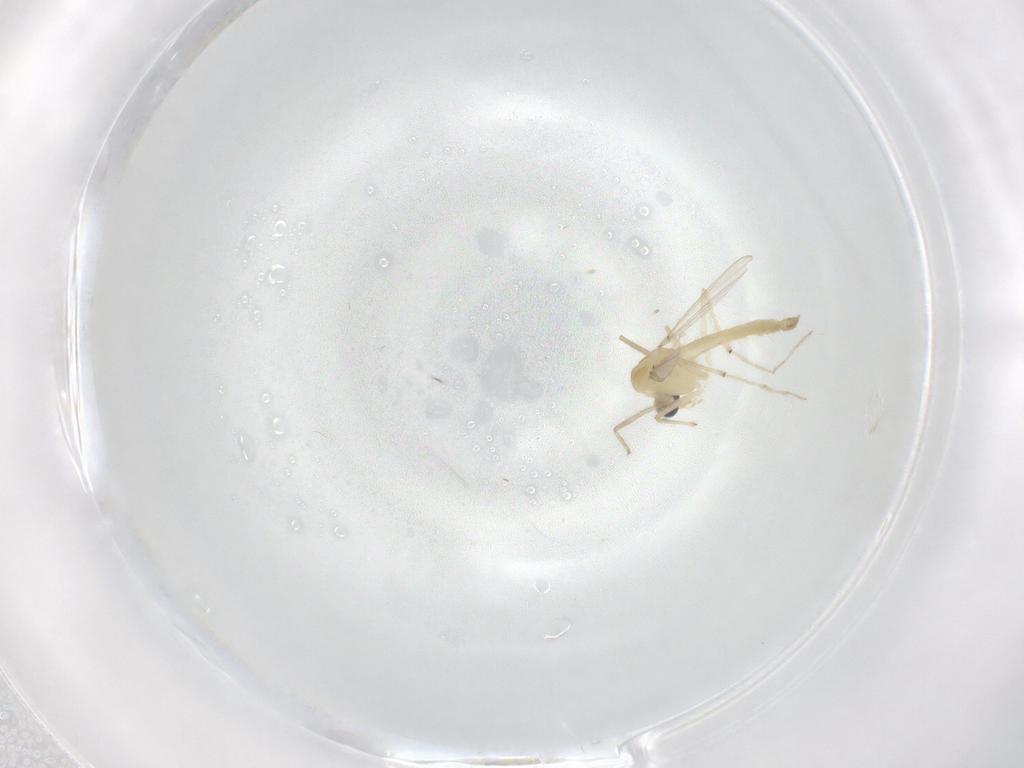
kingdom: Animalia
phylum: Arthropoda
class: Insecta
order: Diptera
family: Chironomidae
